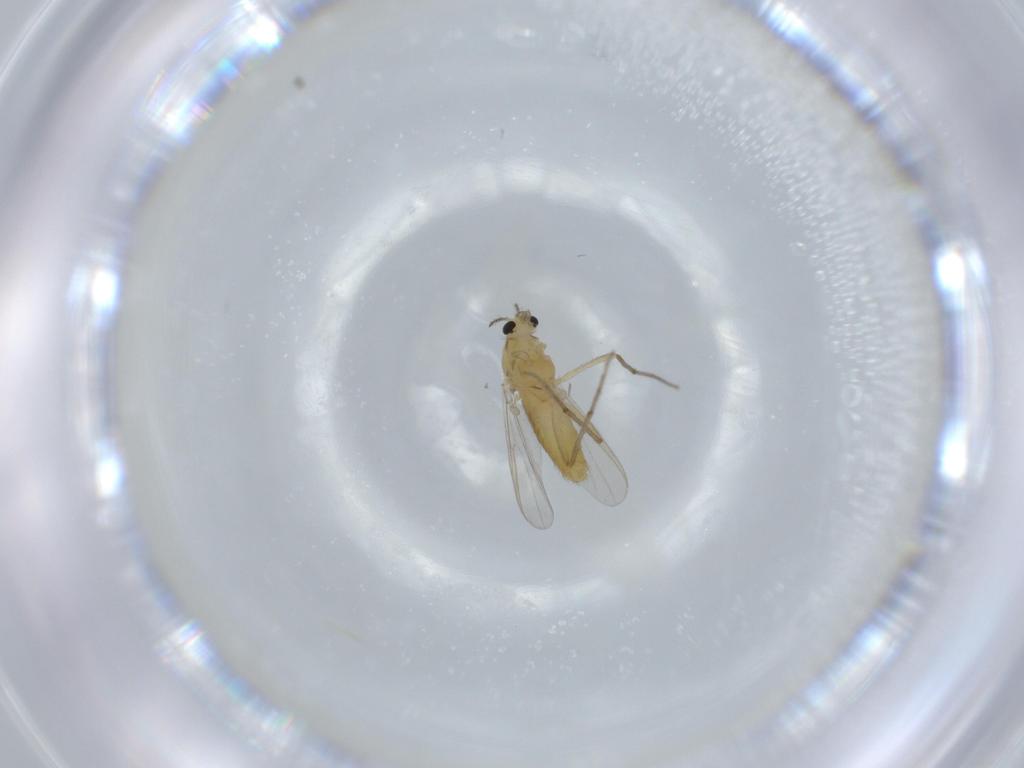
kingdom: Animalia
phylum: Arthropoda
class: Insecta
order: Diptera
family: Chironomidae
